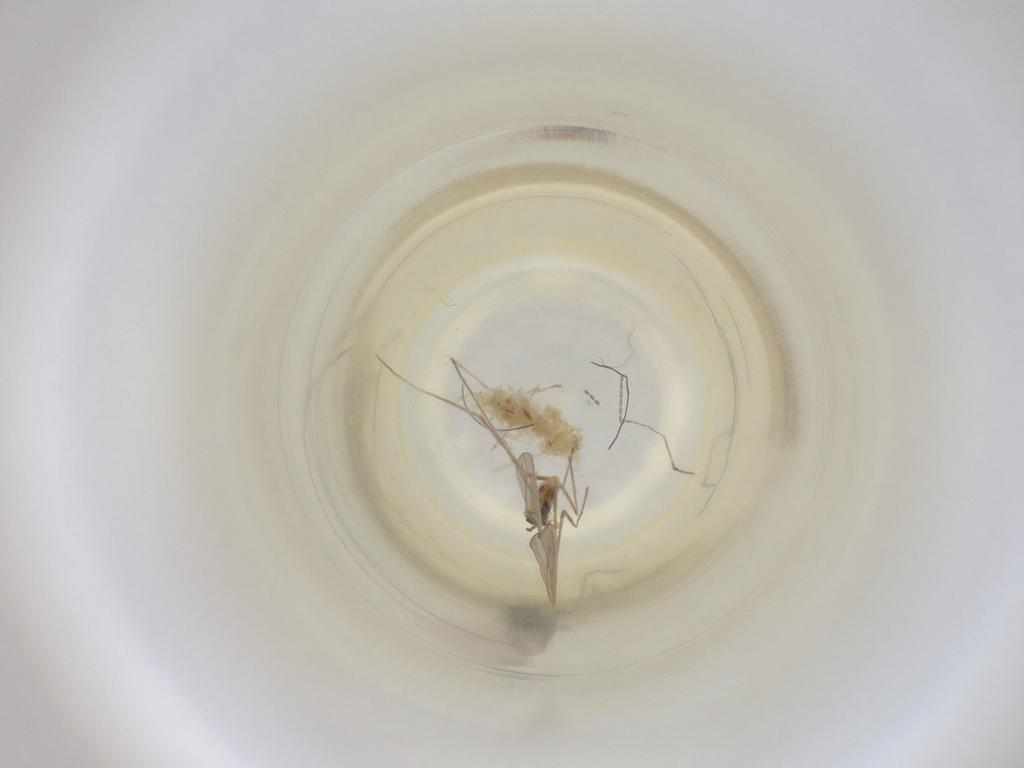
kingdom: Animalia
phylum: Arthropoda
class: Insecta
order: Diptera
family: Cecidomyiidae
